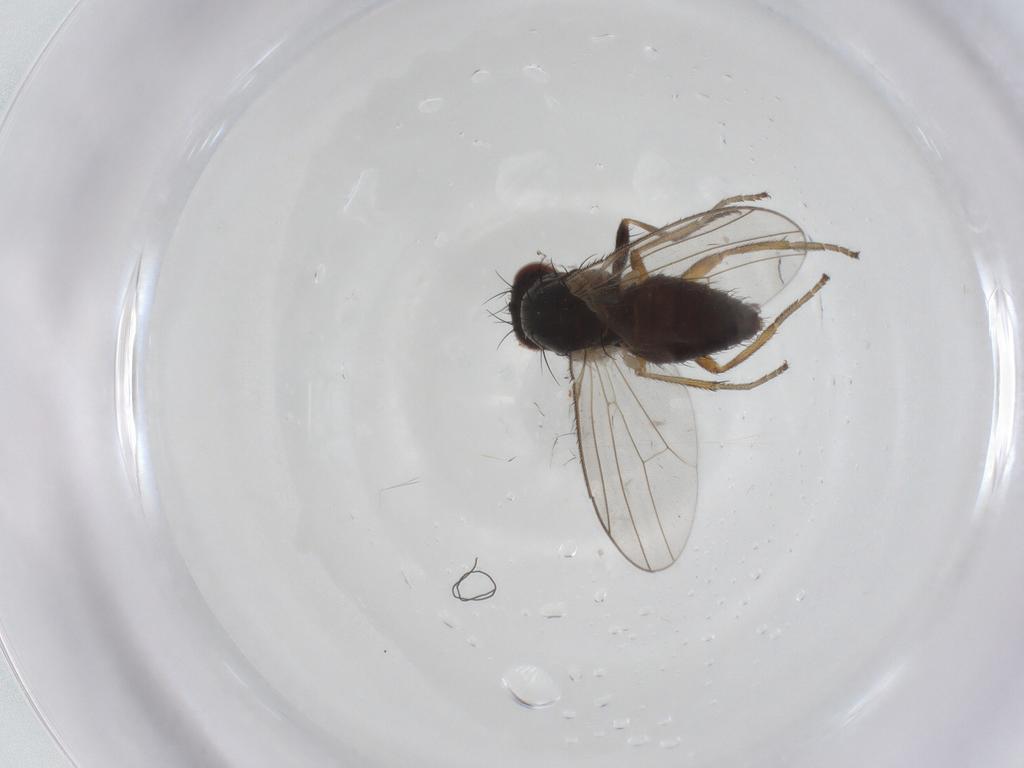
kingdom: Animalia
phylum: Arthropoda
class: Insecta
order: Diptera
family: Heleomyzidae
